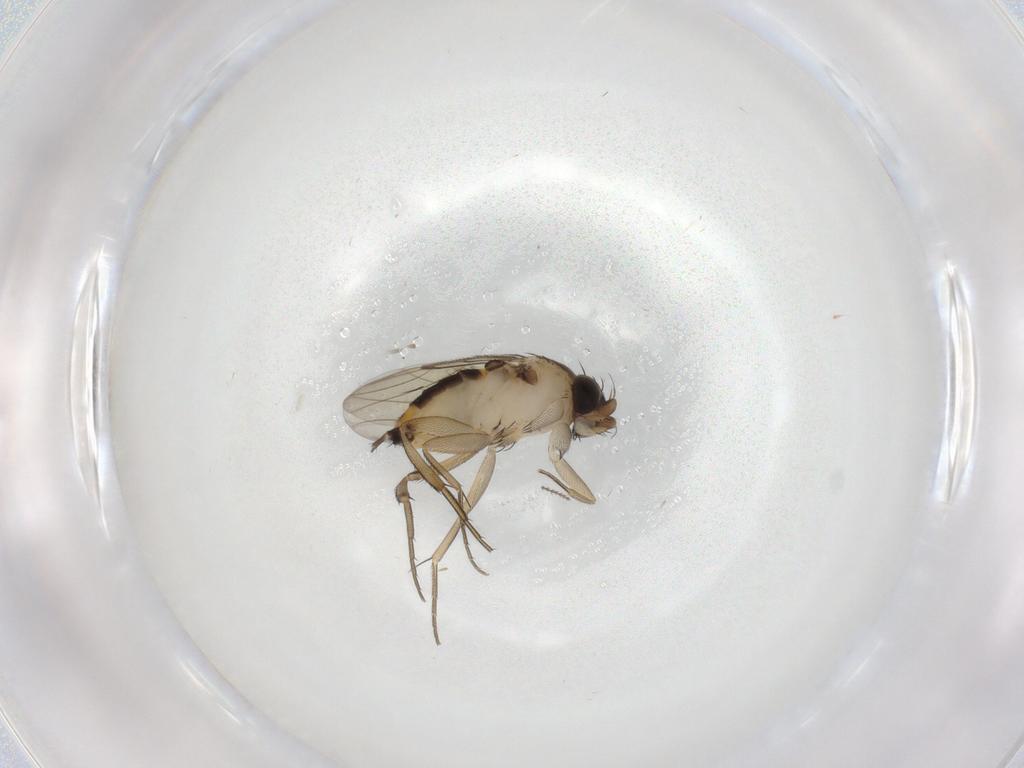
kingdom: Animalia
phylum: Arthropoda
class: Insecta
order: Diptera
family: Phoridae
